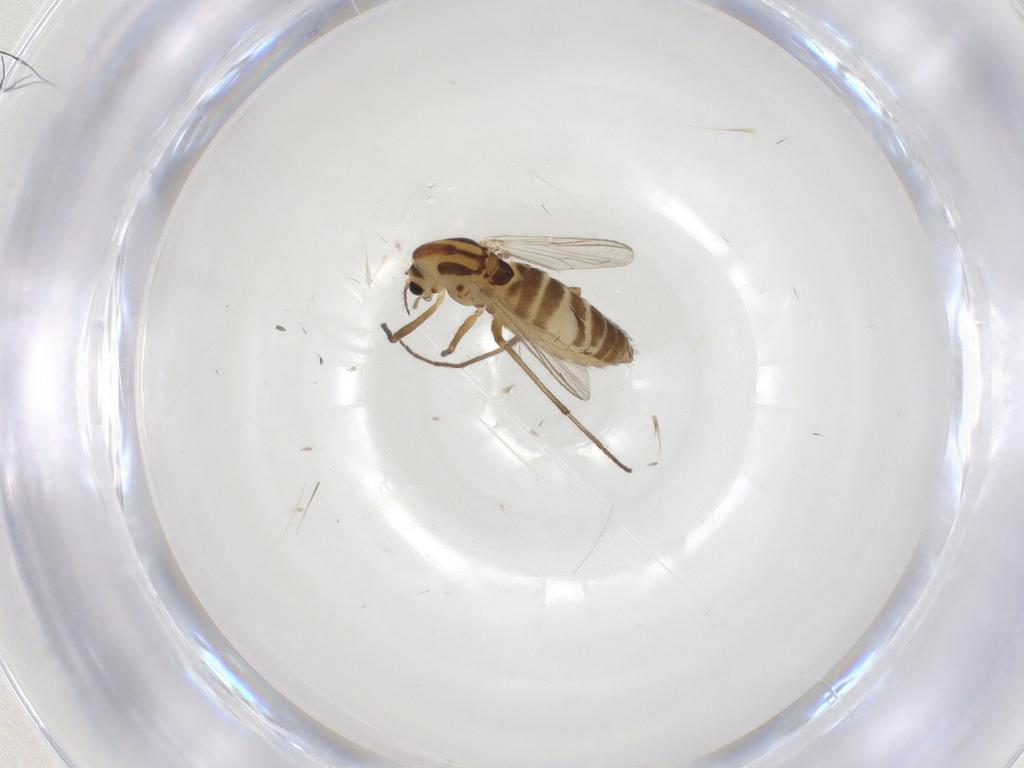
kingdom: Animalia
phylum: Arthropoda
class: Insecta
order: Diptera
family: Chironomidae
